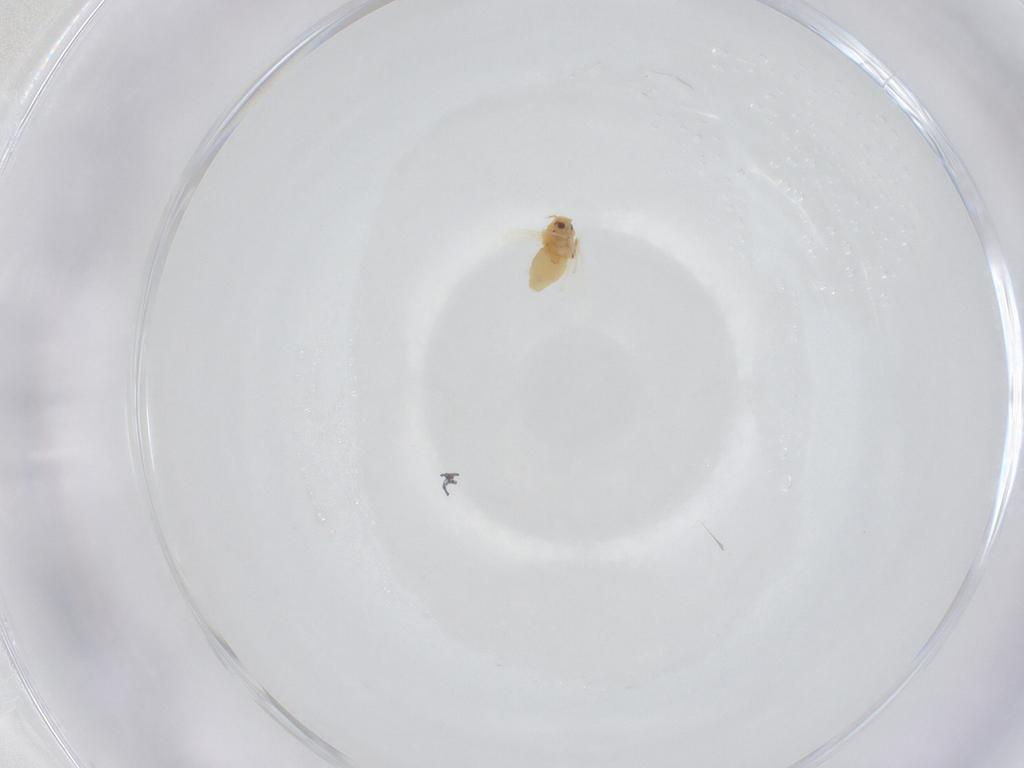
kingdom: Animalia
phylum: Arthropoda
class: Insecta
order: Hemiptera
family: Aleyrodidae
